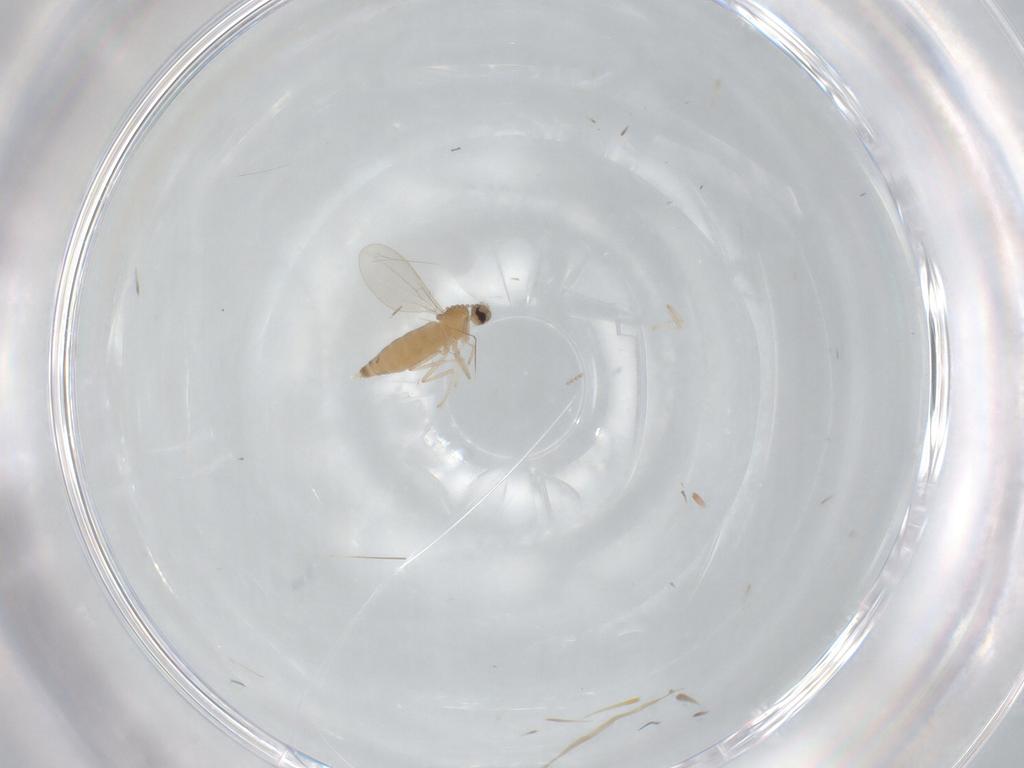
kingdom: Animalia
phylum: Arthropoda
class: Insecta
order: Diptera
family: Cecidomyiidae
